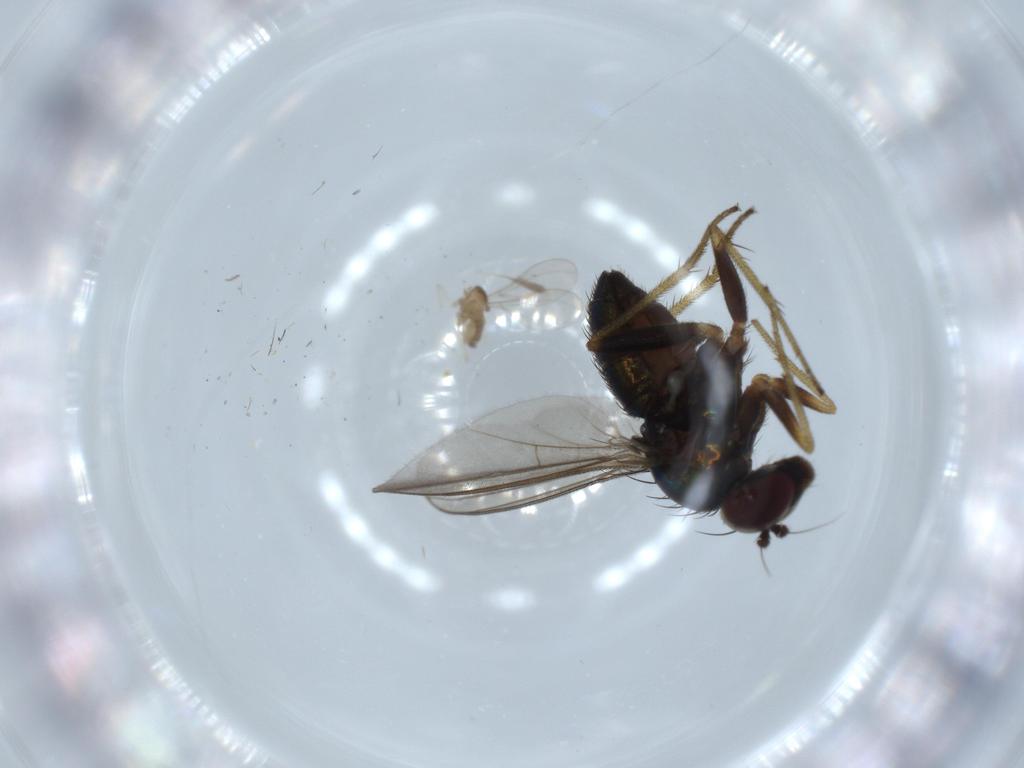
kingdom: Animalia
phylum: Arthropoda
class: Insecta
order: Diptera
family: Cecidomyiidae
